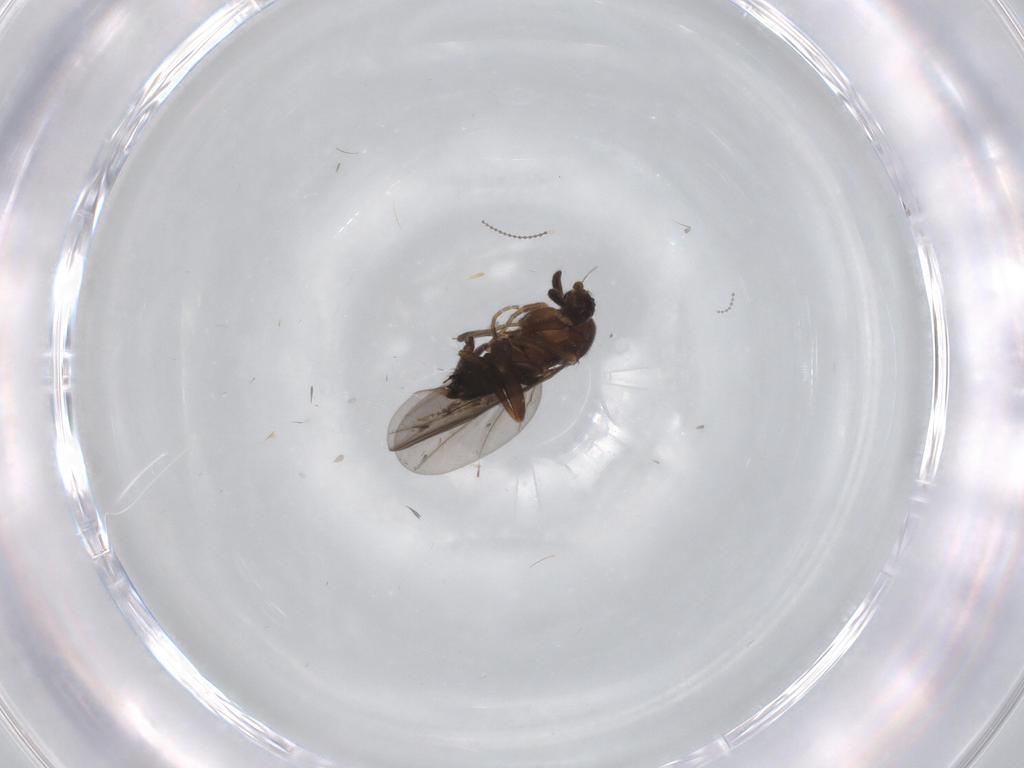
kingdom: Animalia
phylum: Arthropoda
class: Insecta
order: Diptera
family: Phoridae
